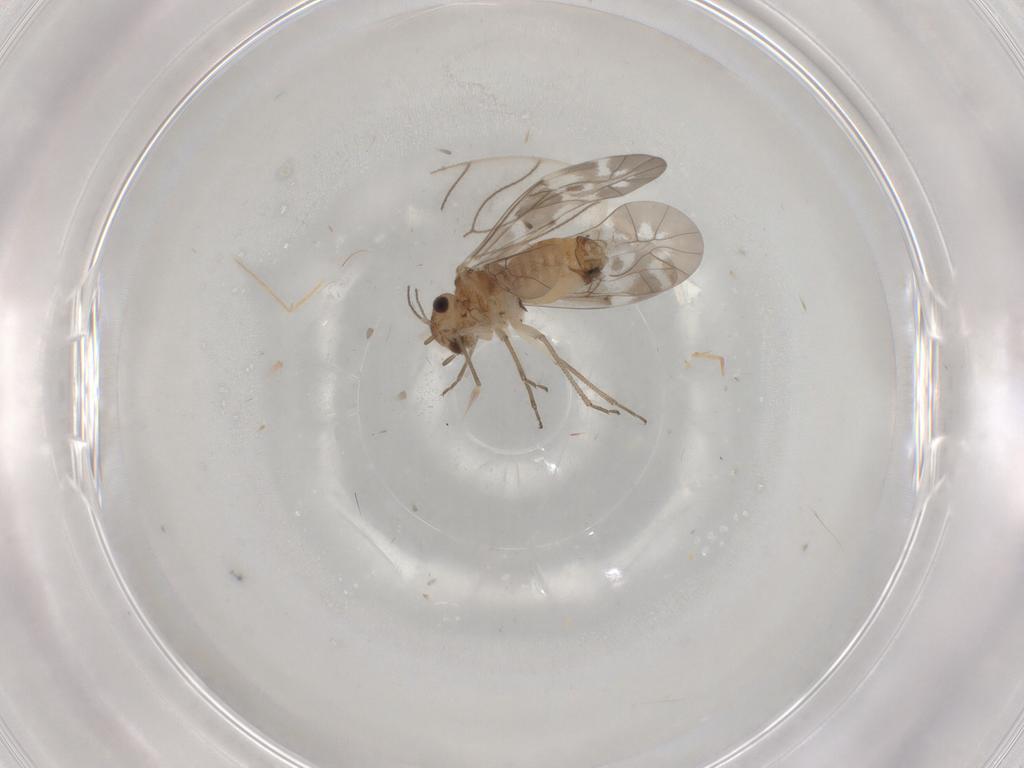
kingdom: Animalia
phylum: Arthropoda
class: Insecta
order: Psocodea
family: Peripsocidae
